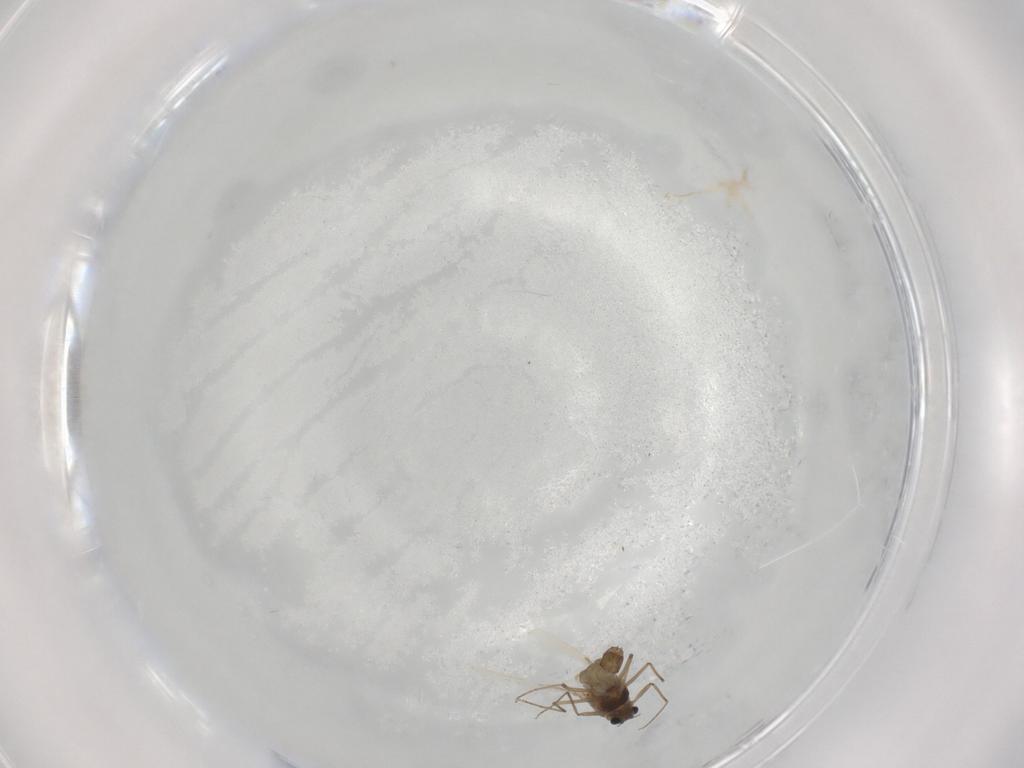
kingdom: Animalia
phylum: Arthropoda
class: Insecta
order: Diptera
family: Chironomidae
